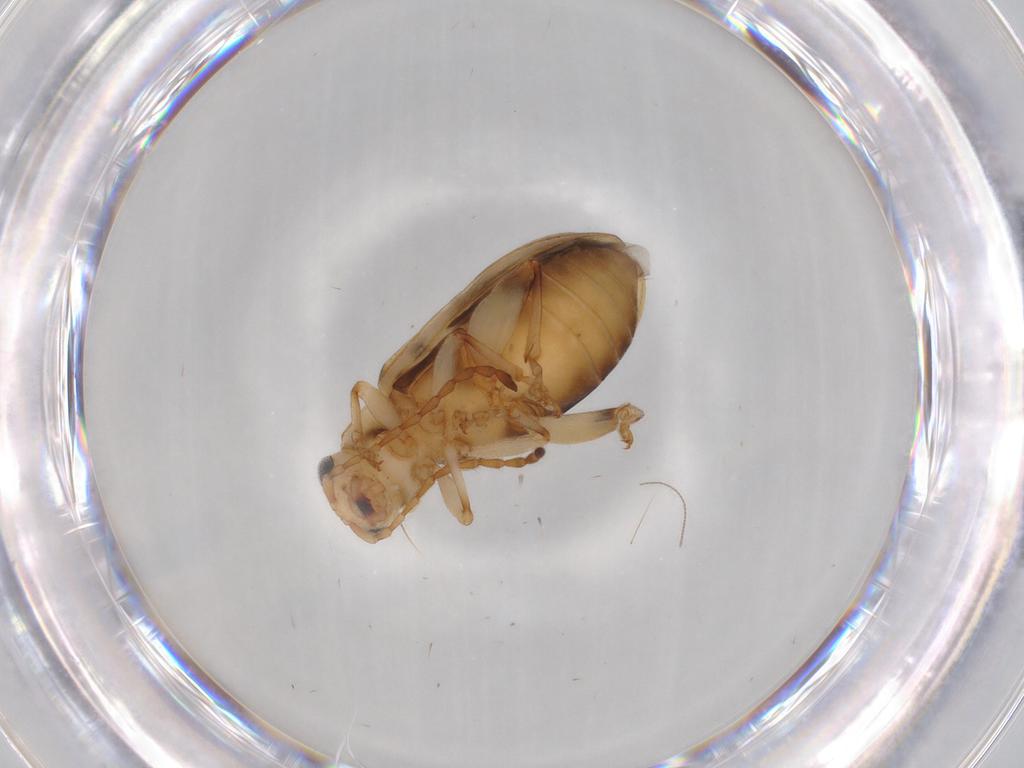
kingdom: Animalia
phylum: Arthropoda
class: Insecta
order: Coleoptera
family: Chrysomelidae
